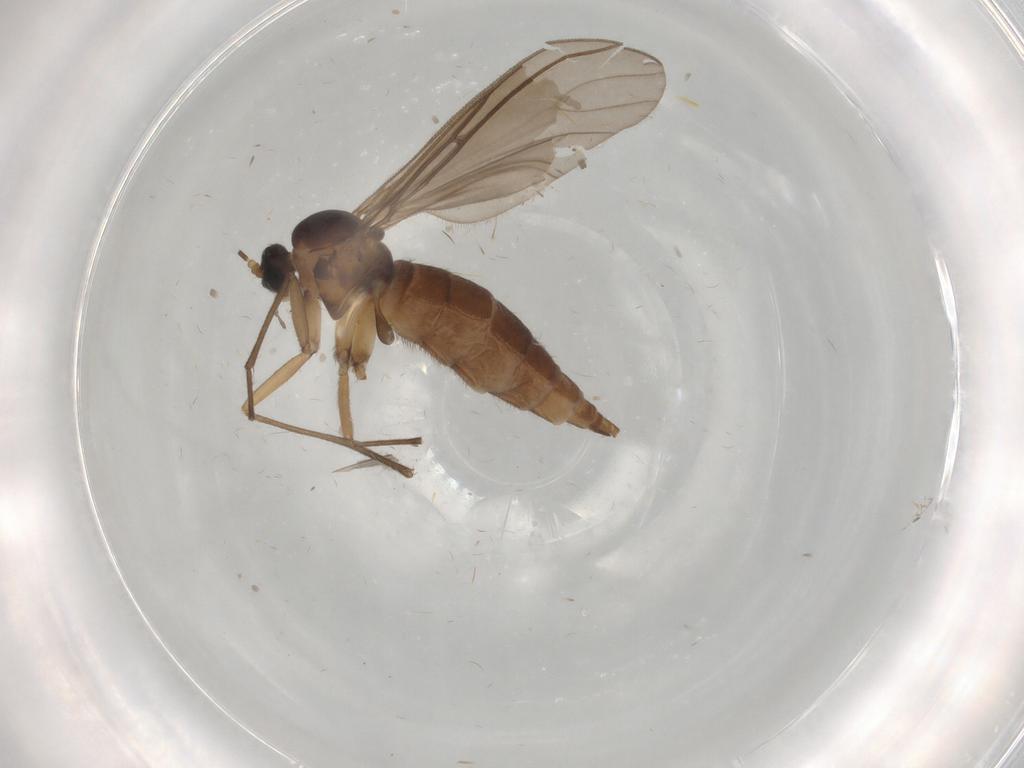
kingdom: Animalia
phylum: Arthropoda
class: Insecta
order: Diptera
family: Sciaridae
